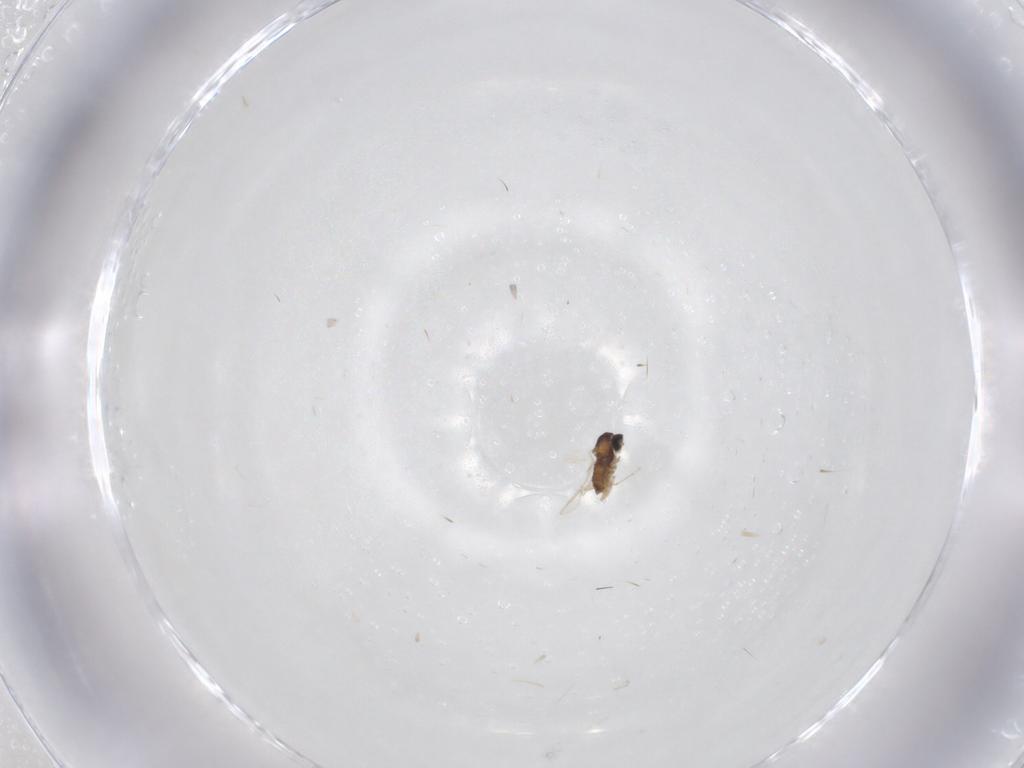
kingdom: Animalia
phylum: Arthropoda
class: Insecta
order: Diptera
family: Cecidomyiidae
